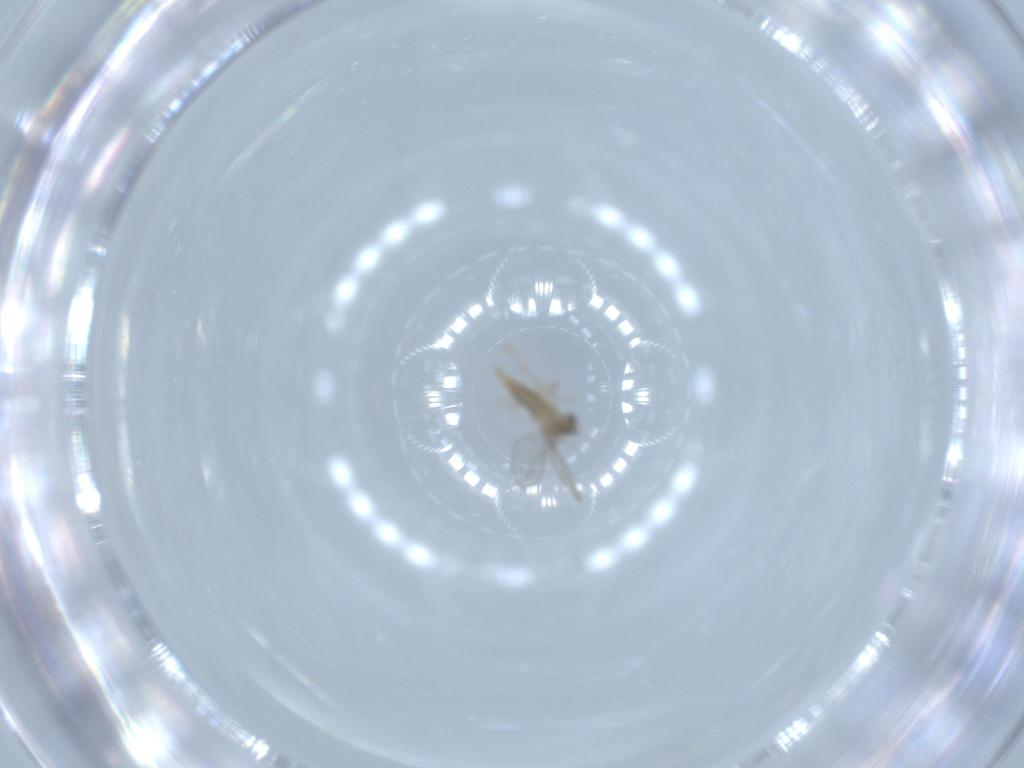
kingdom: Animalia
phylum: Arthropoda
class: Insecta
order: Diptera
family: Cecidomyiidae
